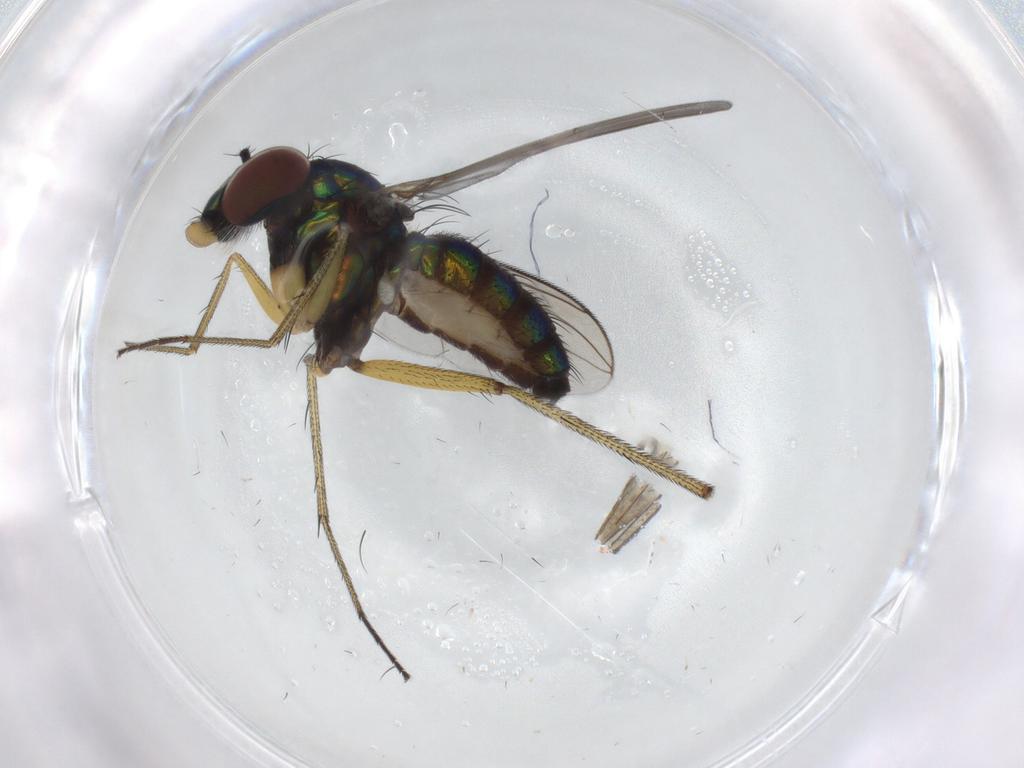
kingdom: Animalia
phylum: Arthropoda
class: Insecta
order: Diptera
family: Dolichopodidae
